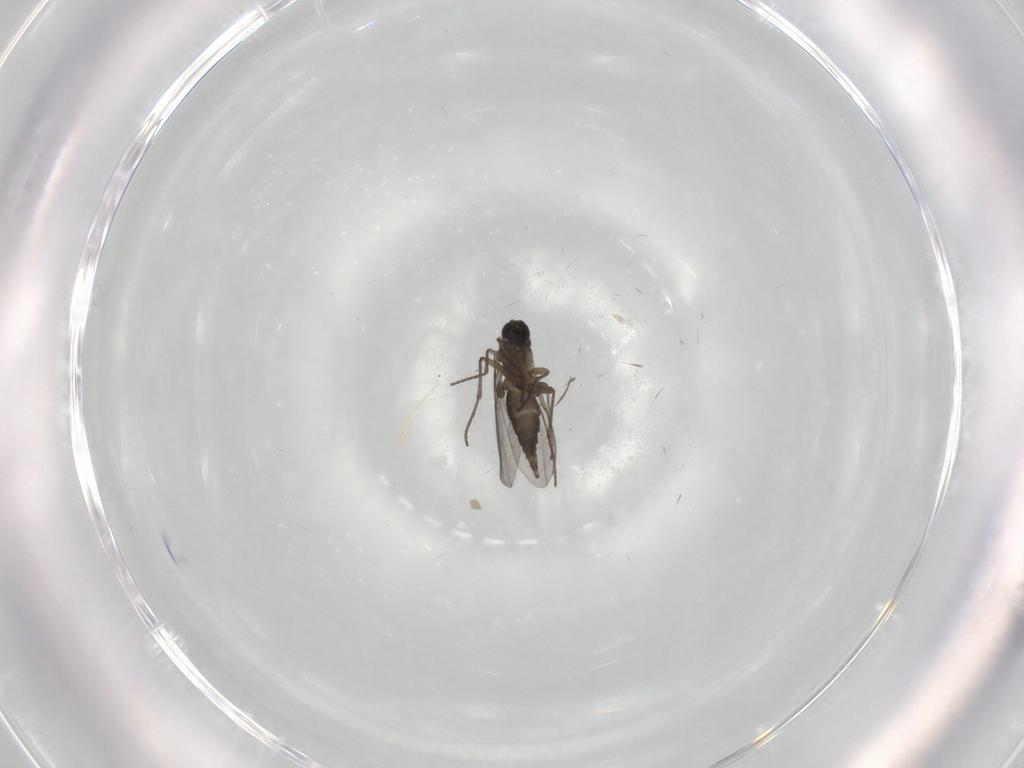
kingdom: Animalia
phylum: Arthropoda
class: Insecta
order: Diptera
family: Sciaridae
